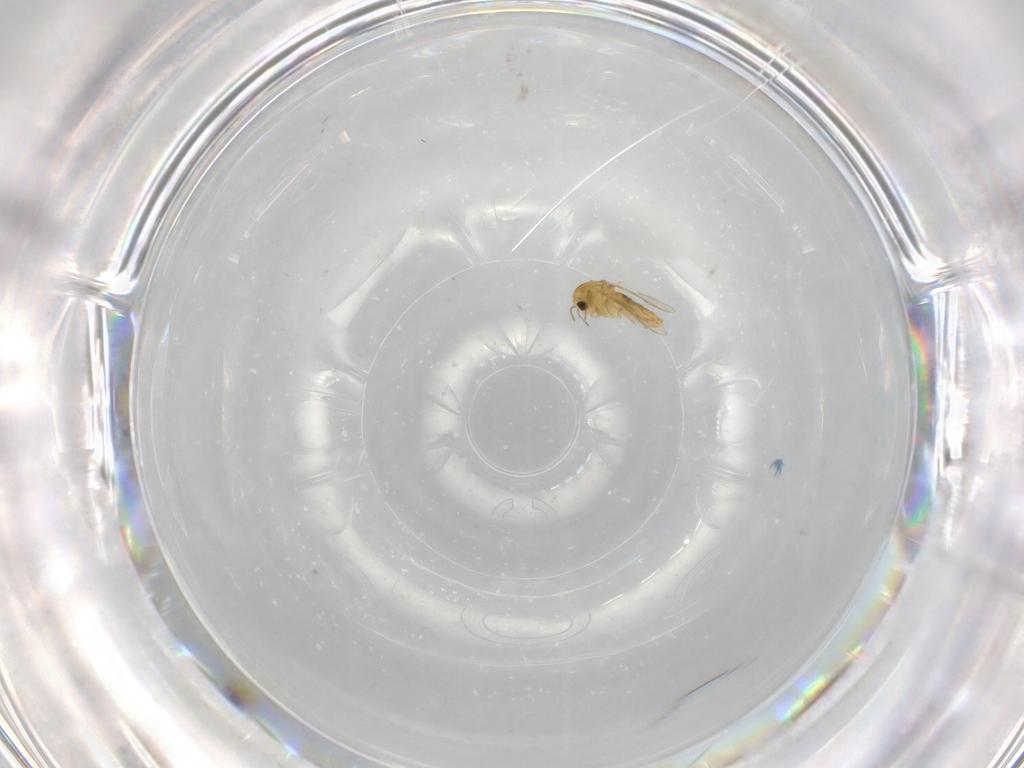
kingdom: Animalia
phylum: Arthropoda
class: Insecta
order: Diptera
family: Chironomidae
